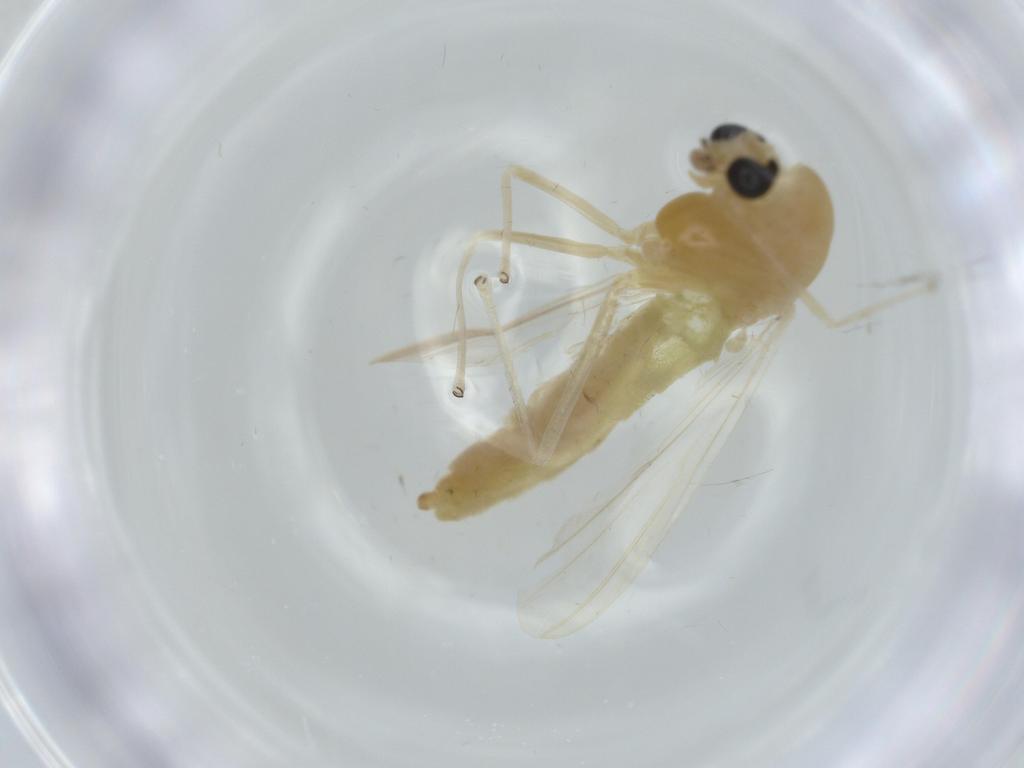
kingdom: Animalia
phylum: Arthropoda
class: Insecta
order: Diptera
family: Chironomidae
